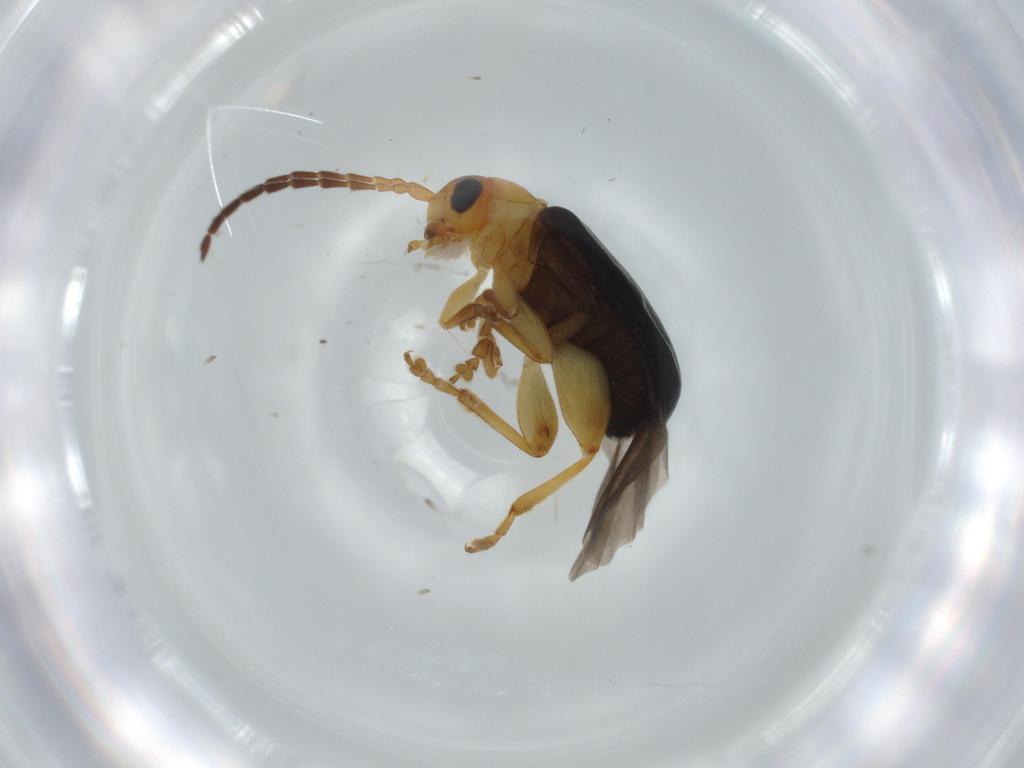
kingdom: Animalia
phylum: Arthropoda
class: Insecta
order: Coleoptera
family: Chrysomelidae
